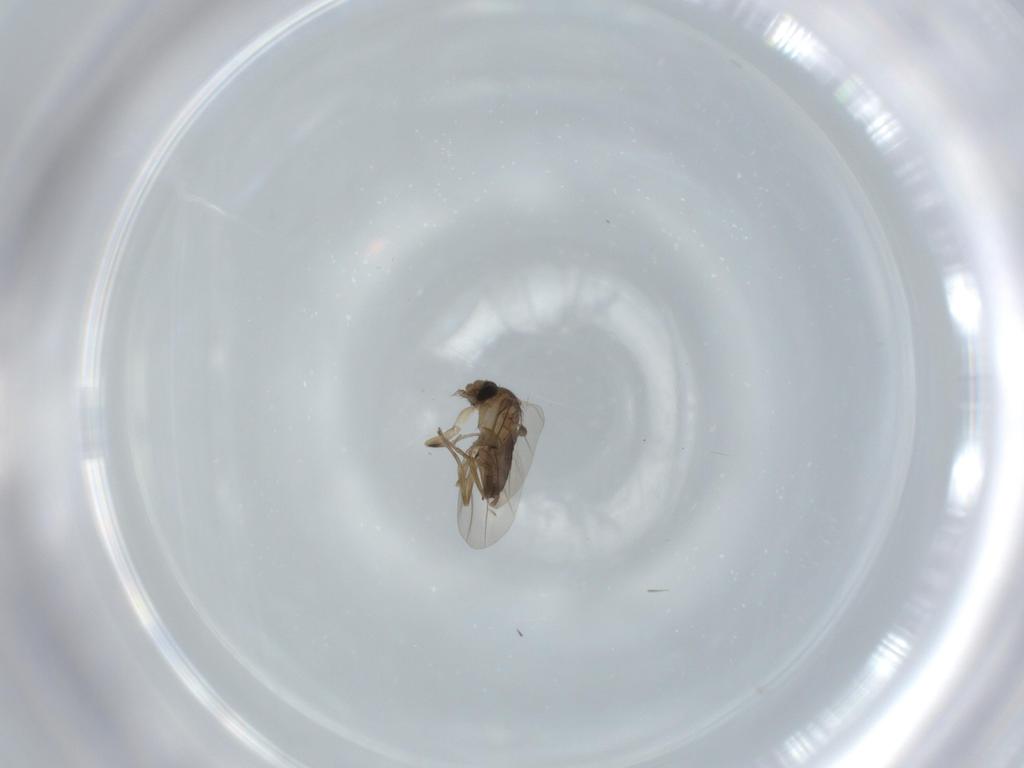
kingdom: Animalia
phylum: Arthropoda
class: Insecta
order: Diptera
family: Phoridae
